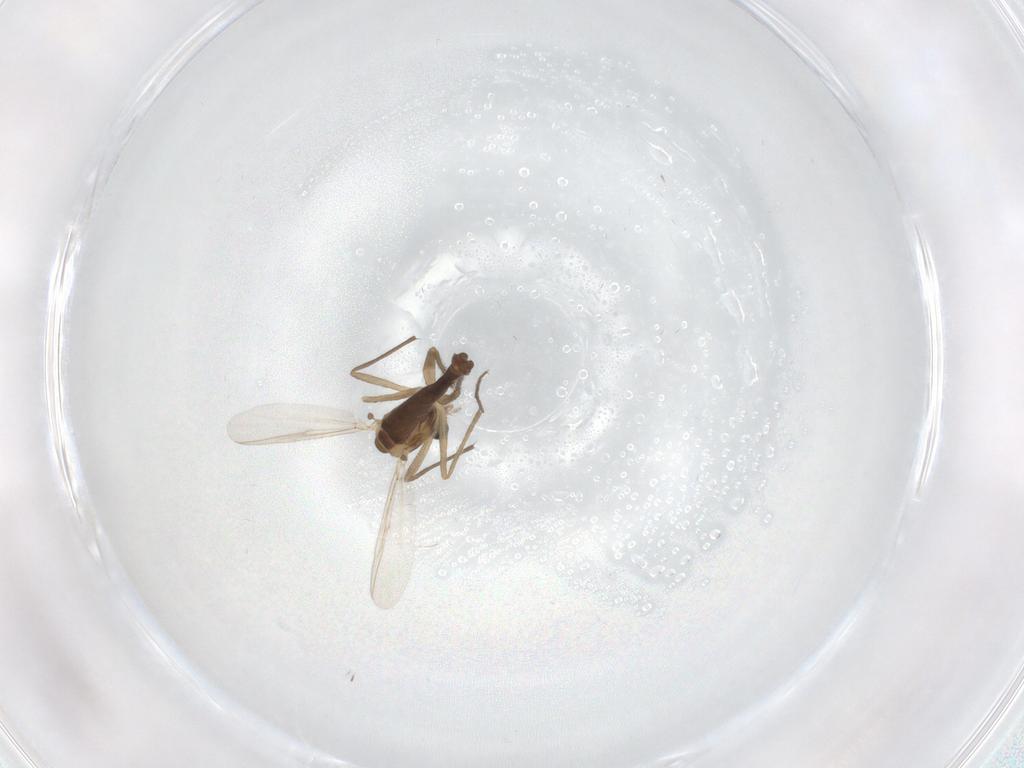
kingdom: Animalia
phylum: Arthropoda
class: Insecta
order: Diptera
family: Chironomidae
